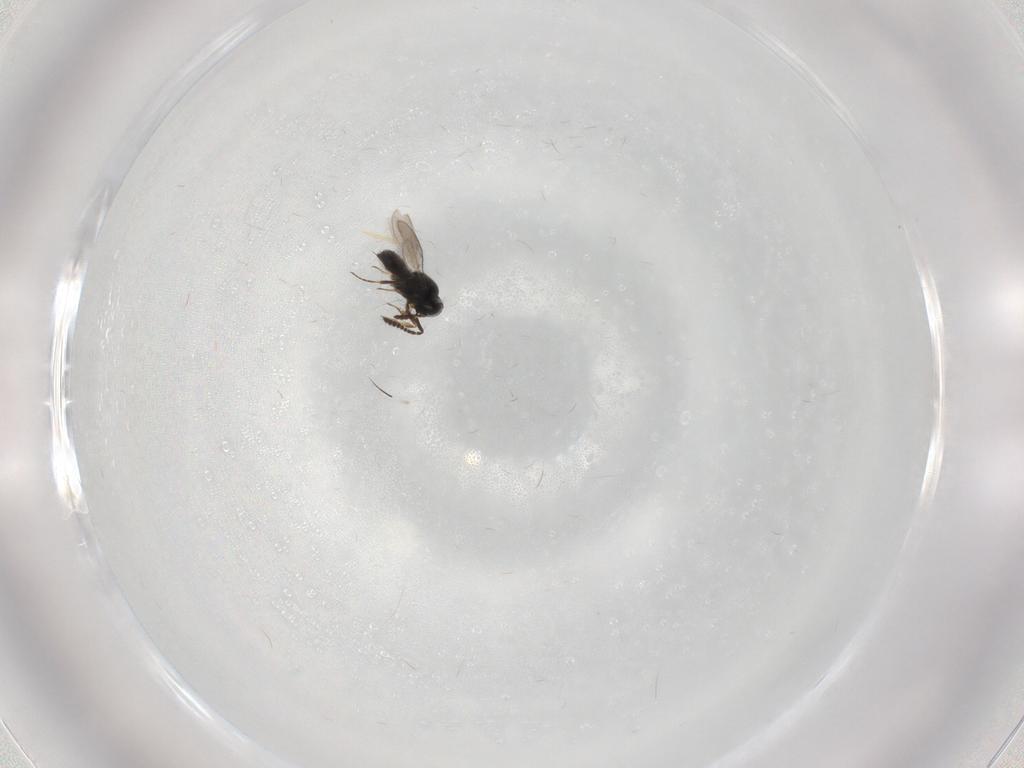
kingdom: Animalia
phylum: Arthropoda
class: Insecta
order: Hymenoptera
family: Scelionidae
